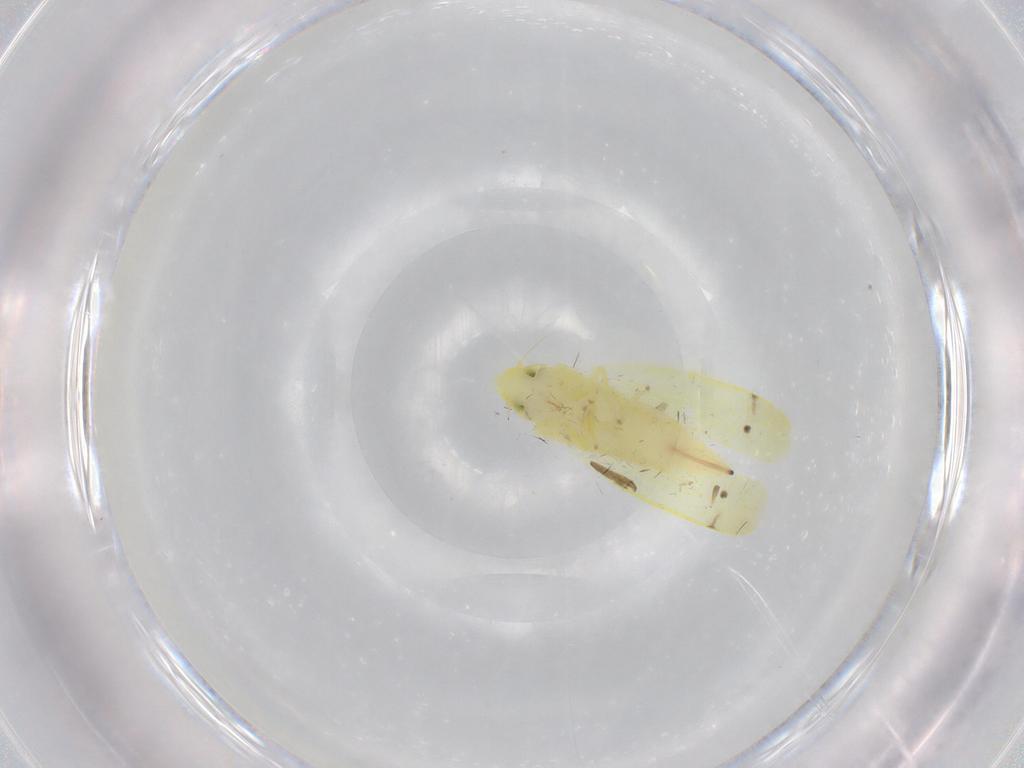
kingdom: Animalia
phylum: Arthropoda
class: Insecta
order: Hemiptera
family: Cicadellidae
